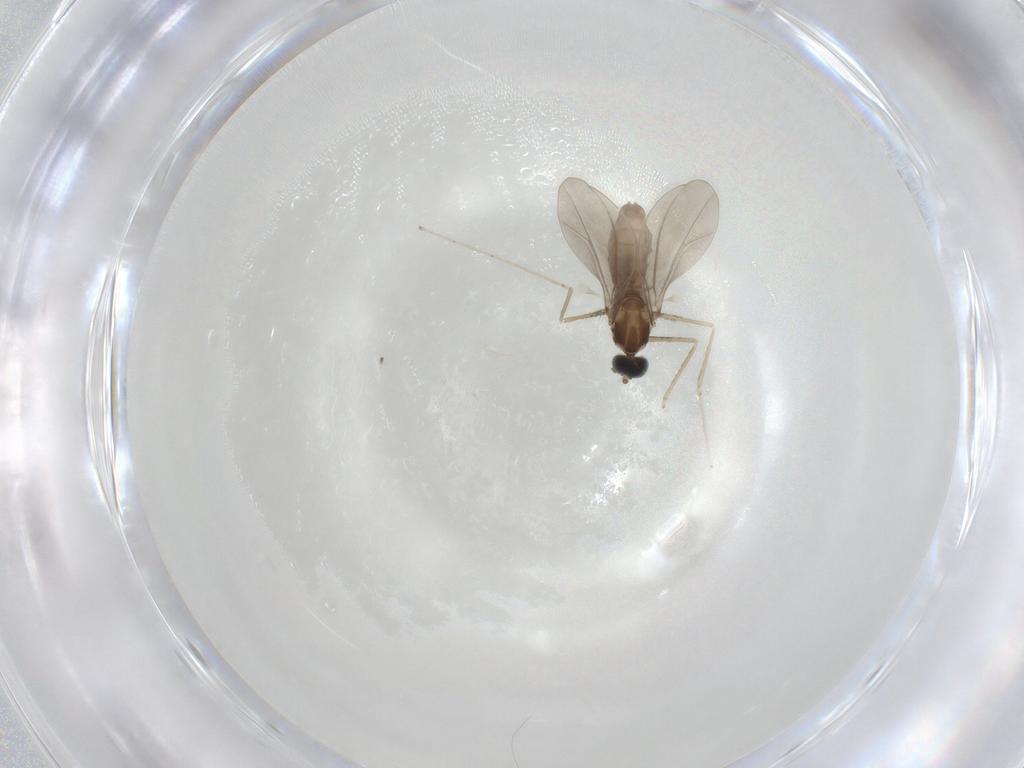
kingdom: Animalia
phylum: Arthropoda
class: Insecta
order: Diptera
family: Cecidomyiidae
